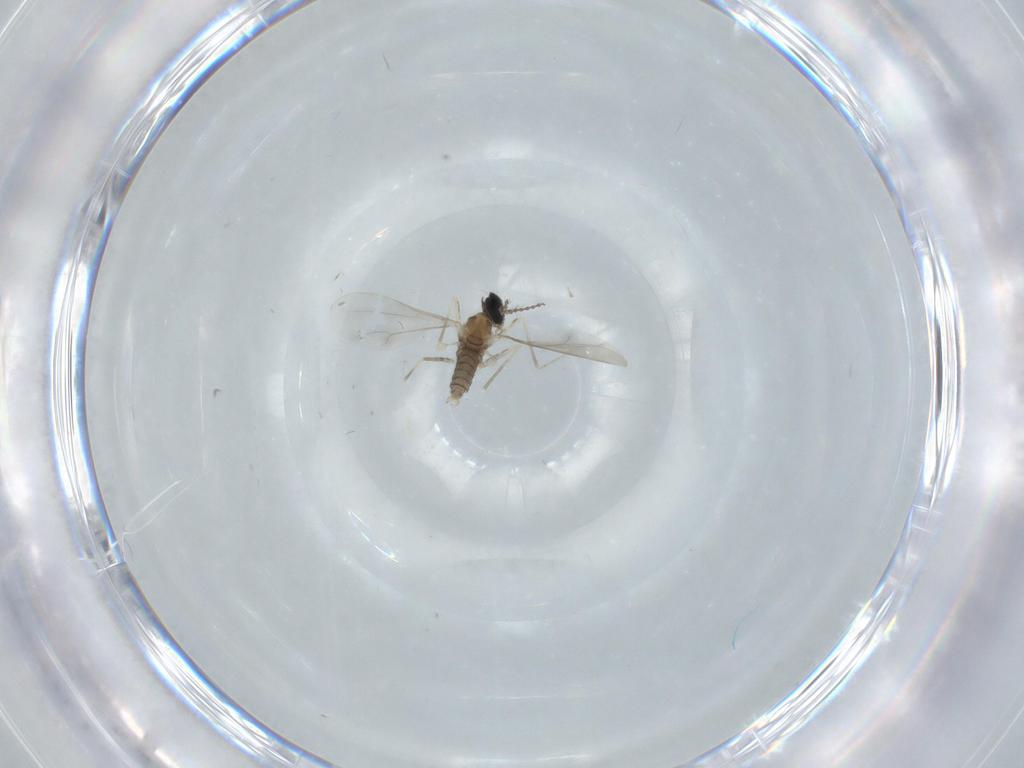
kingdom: Animalia
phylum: Arthropoda
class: Insecta
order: Diptera
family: Cecidomyiidae
